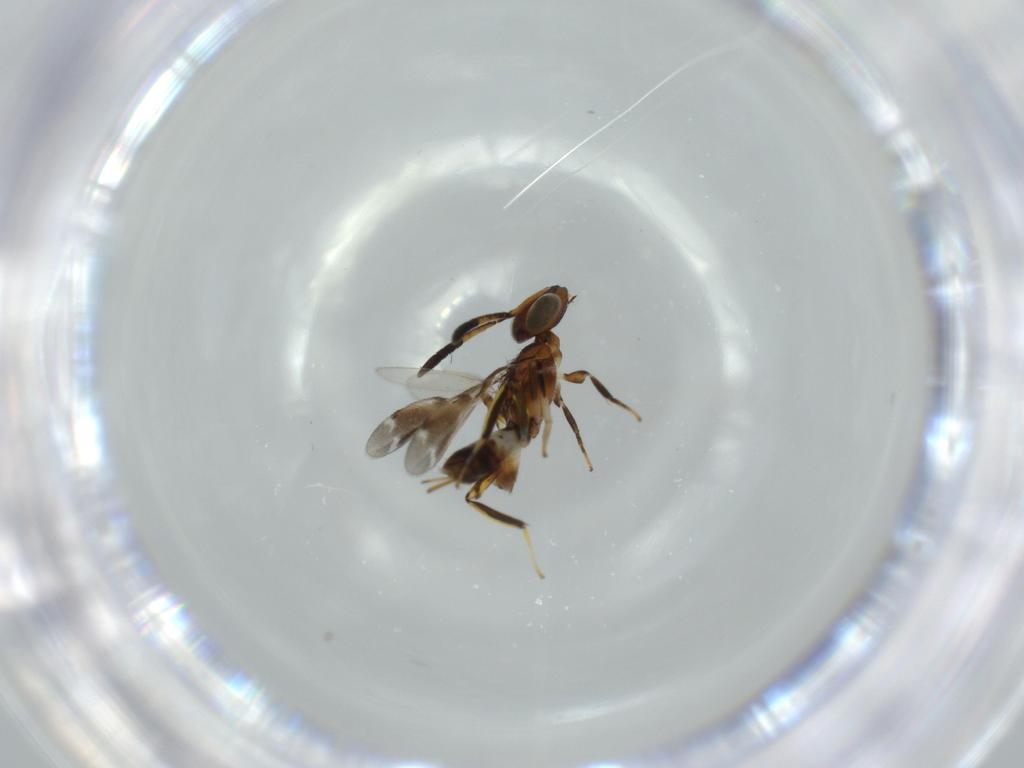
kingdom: Animalia
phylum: Arthropoda
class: Insecta
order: Hymenoptera
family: Eupelmidae
